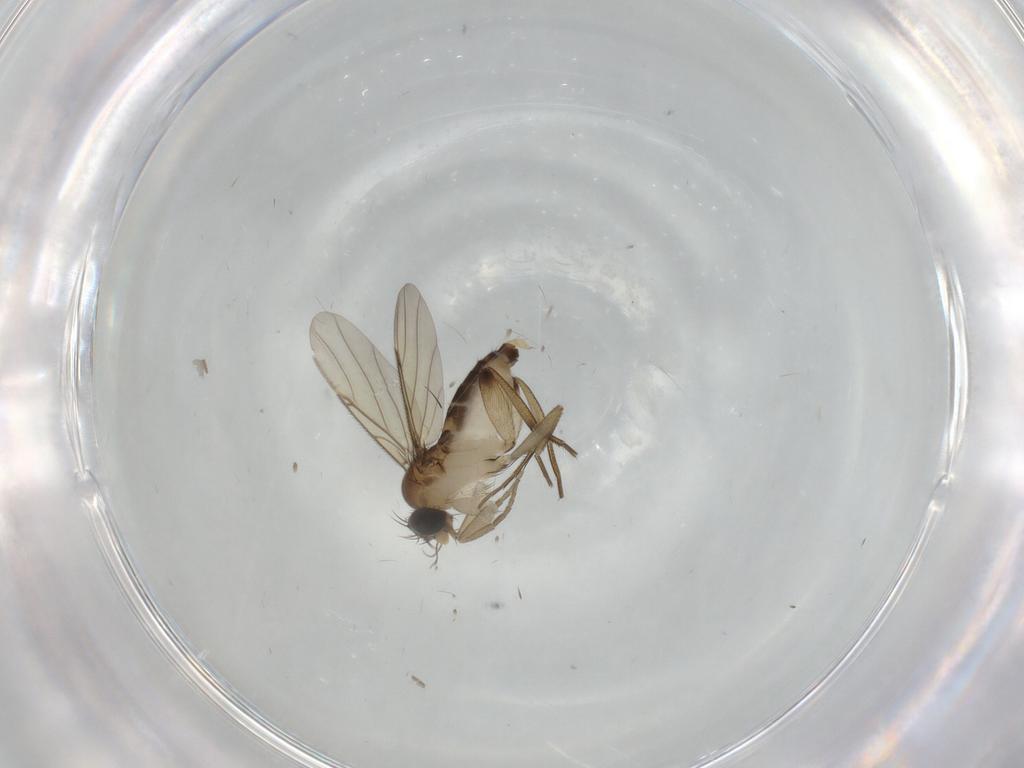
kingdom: Animalia
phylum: Arthropoda
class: Insecta
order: Diptera
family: Phoridae
